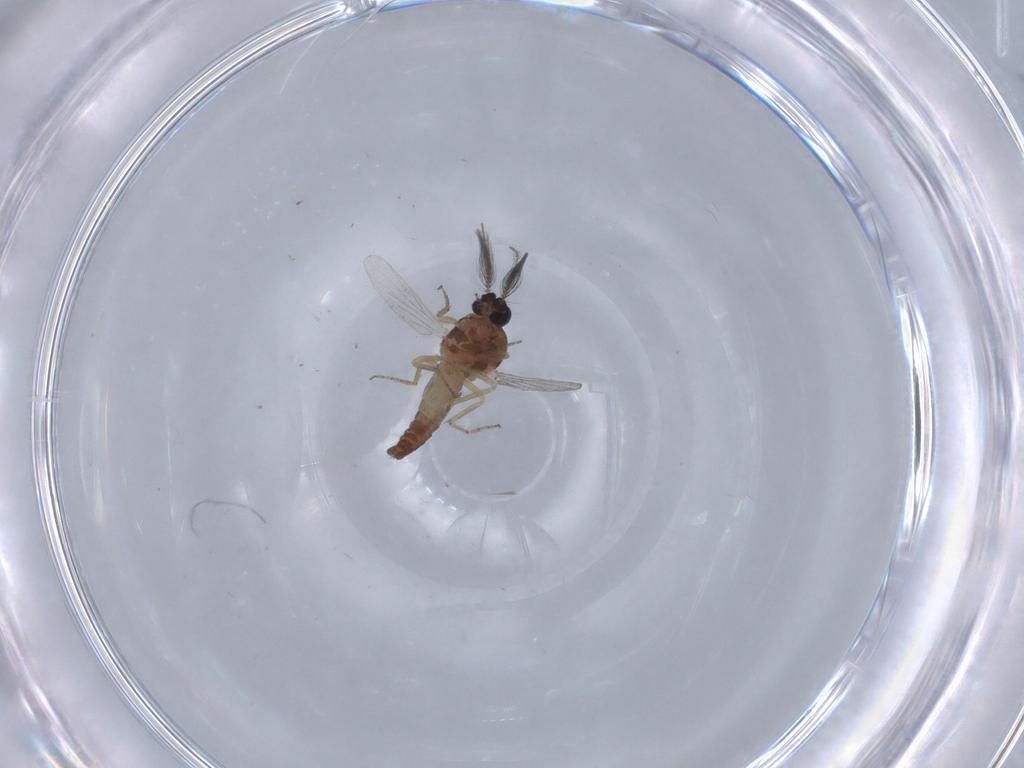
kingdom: Animalia
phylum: Arthropoda
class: Insecta
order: Diptera
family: Ceratopogonidae
